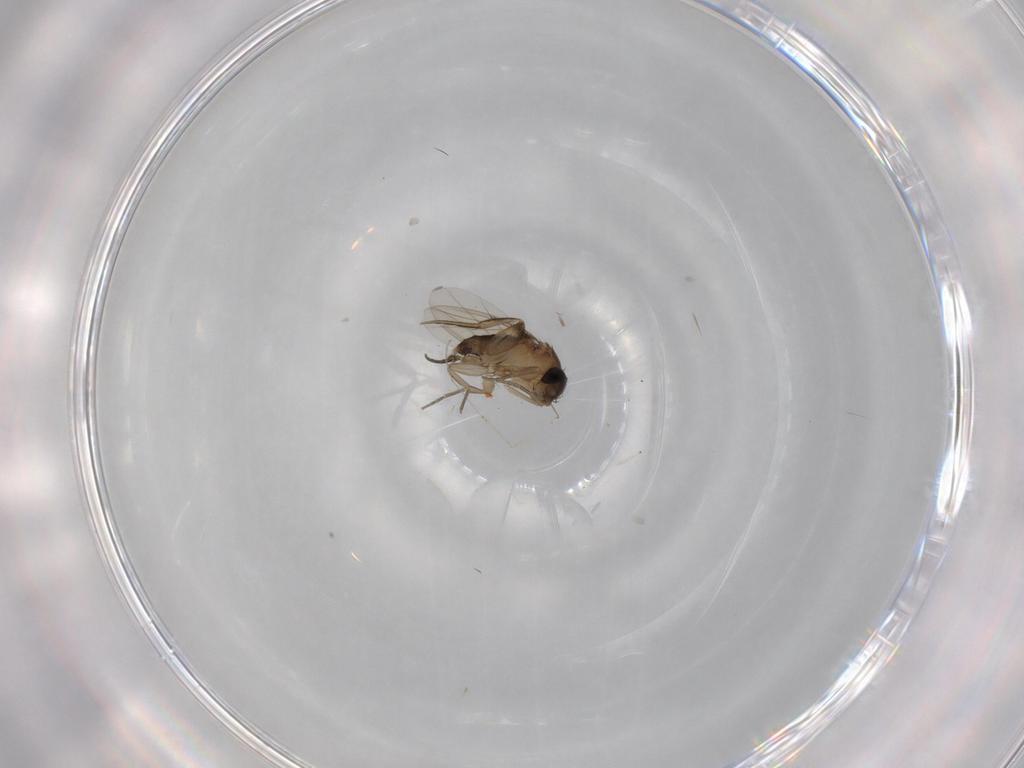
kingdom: Animalia
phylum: Arthropoda
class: Insecta
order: Diptera
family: Phoridae
